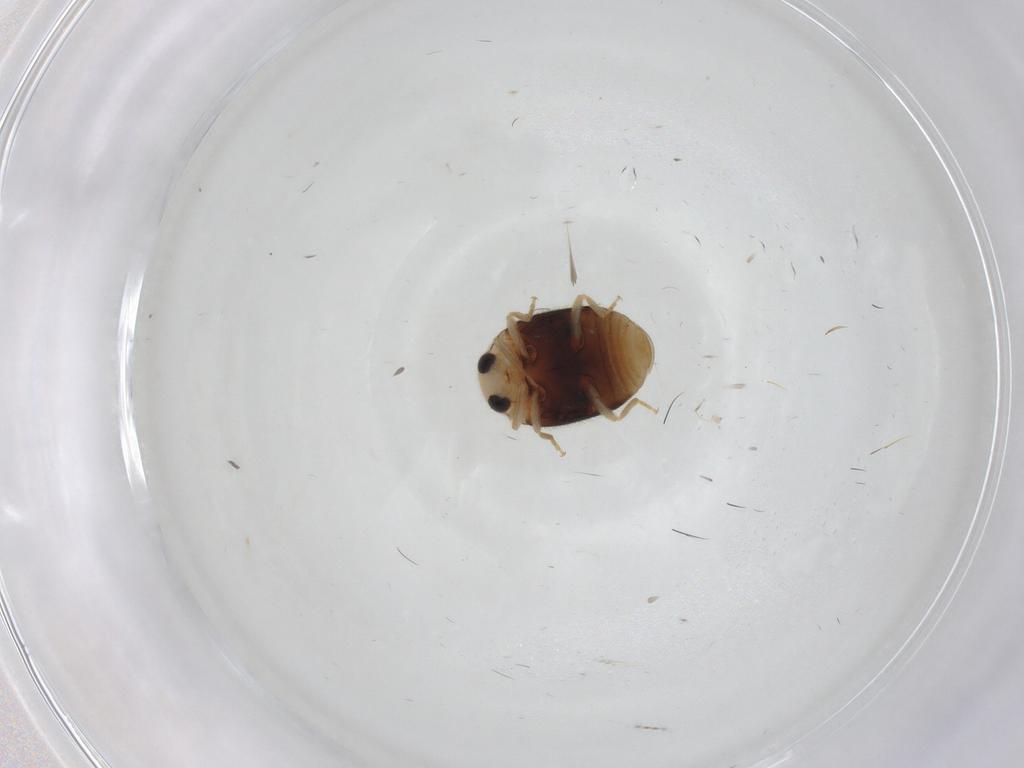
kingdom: Animalia
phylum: Arthropoda
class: Insecta
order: Coleoptera
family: Coccinellidae
